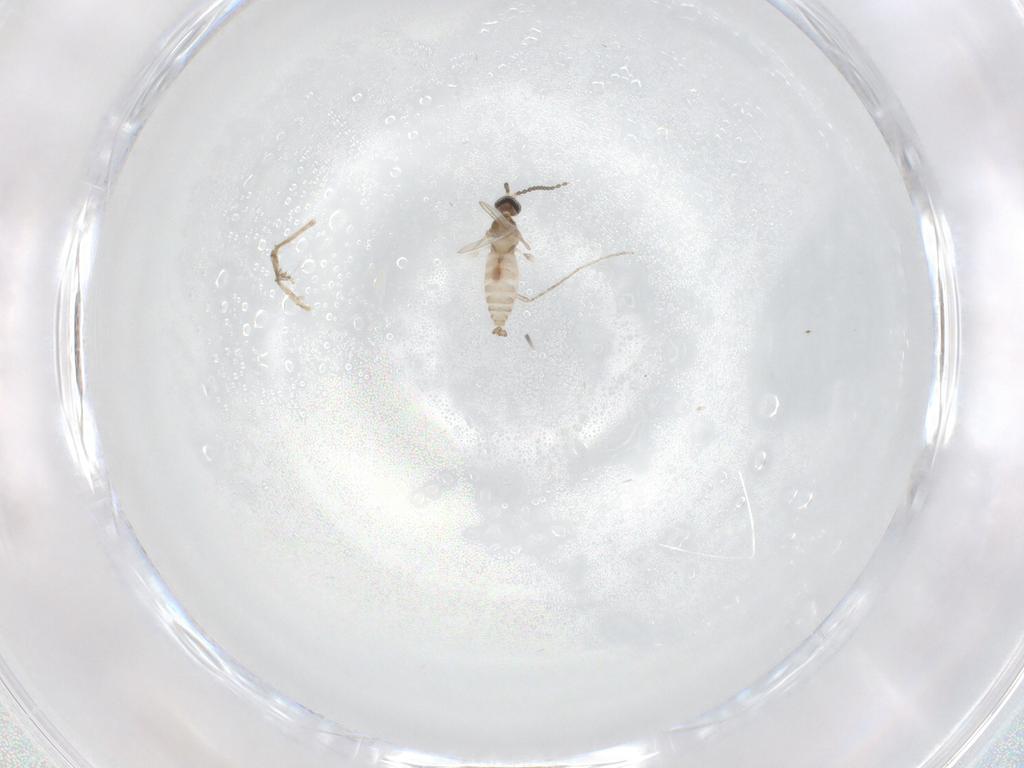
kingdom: Animalia
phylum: Arthropoda
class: Insecta
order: Diptera
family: Cecidomyiidae
